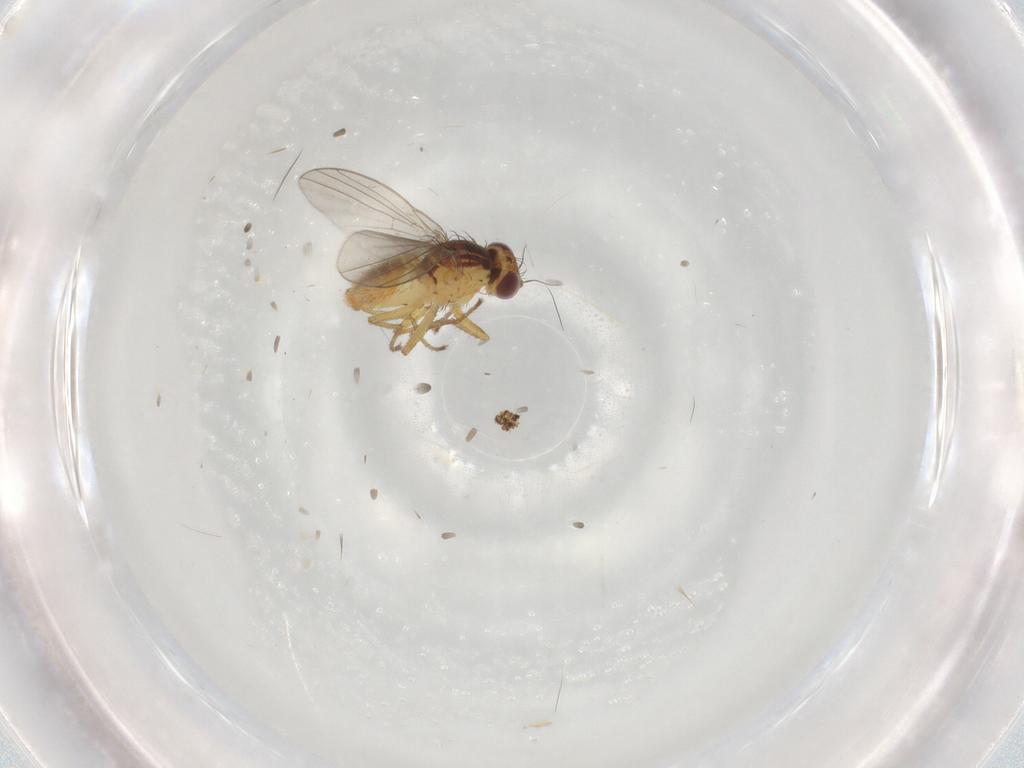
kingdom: Animalia
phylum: Arthropoda
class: Insecta
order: Diptera
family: Agromyzidae
